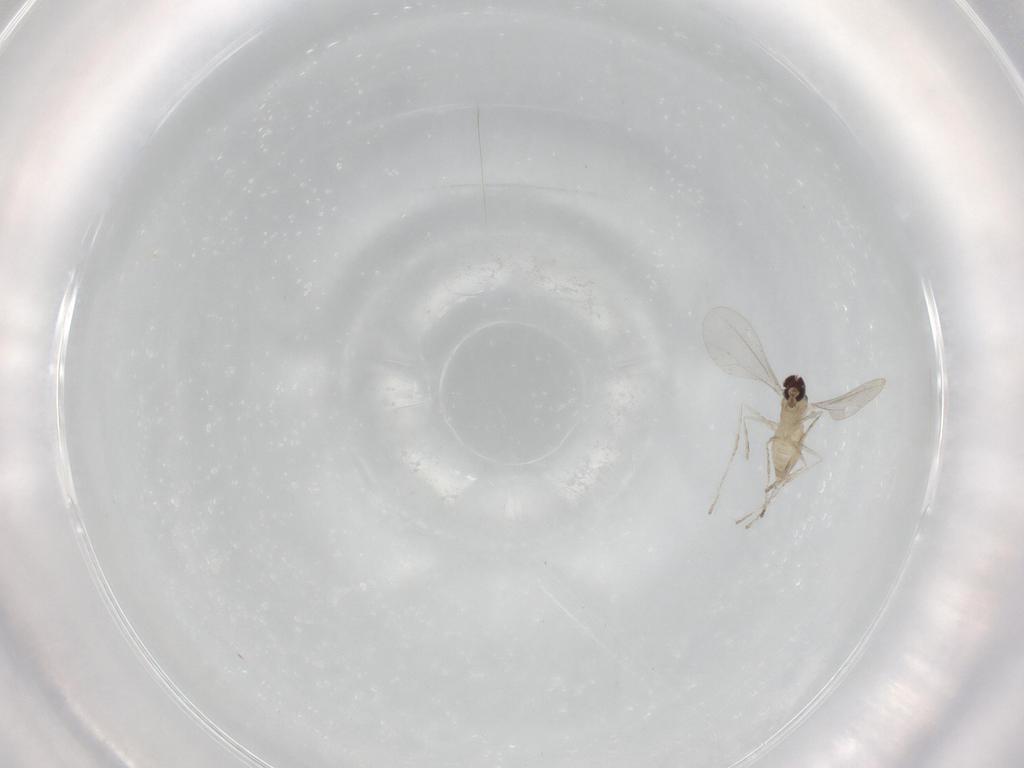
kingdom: Animalia
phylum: Arthropoda
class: Insecta
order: Diptera
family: Cecidomyiidae
